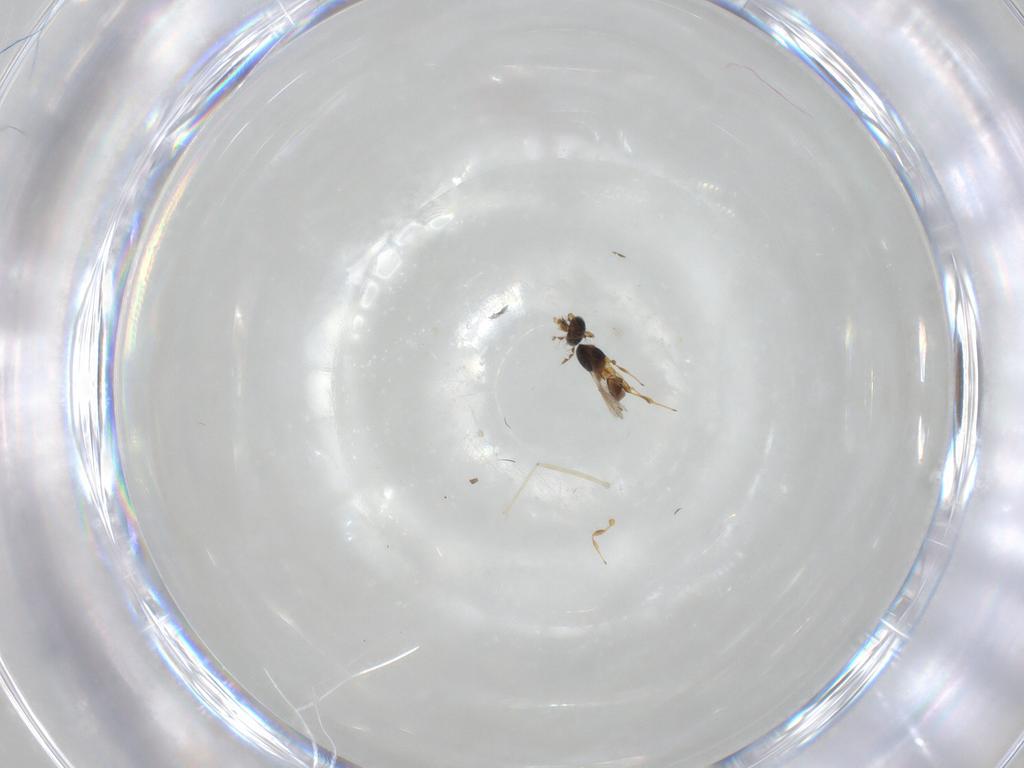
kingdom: Animalia
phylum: Arthropoda
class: Insecta
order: Hymenoptera
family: Platygastridae
